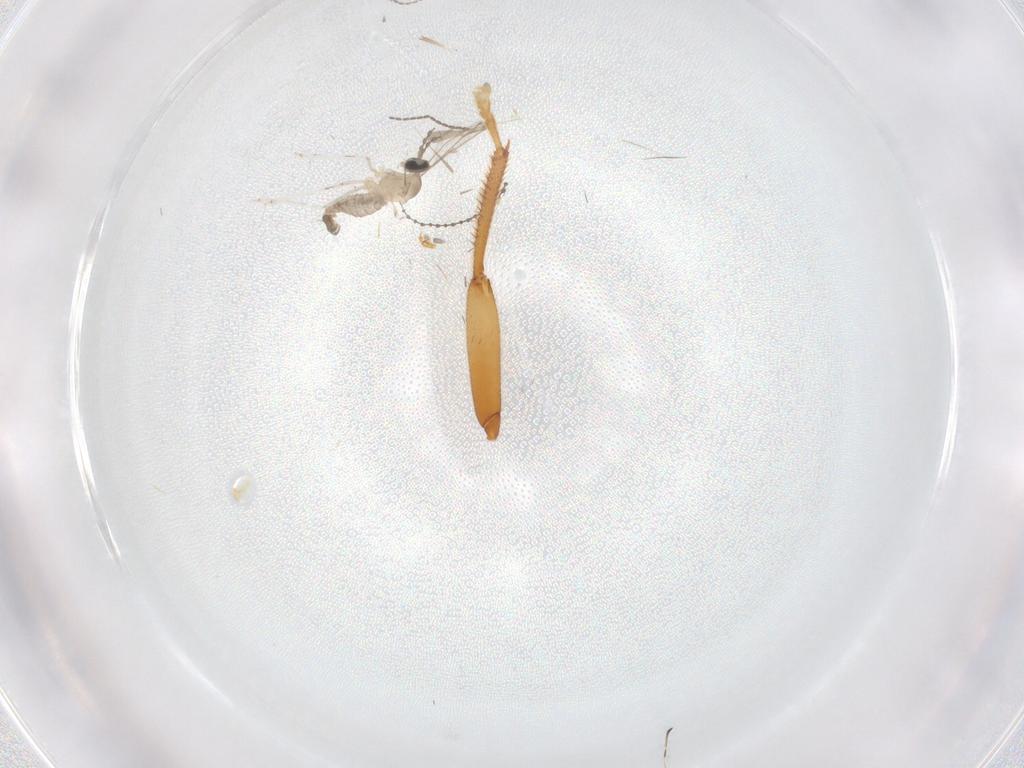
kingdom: Animalia
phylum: Arthropoda
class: Insecta
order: Diptera
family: Cecidomyiidae
